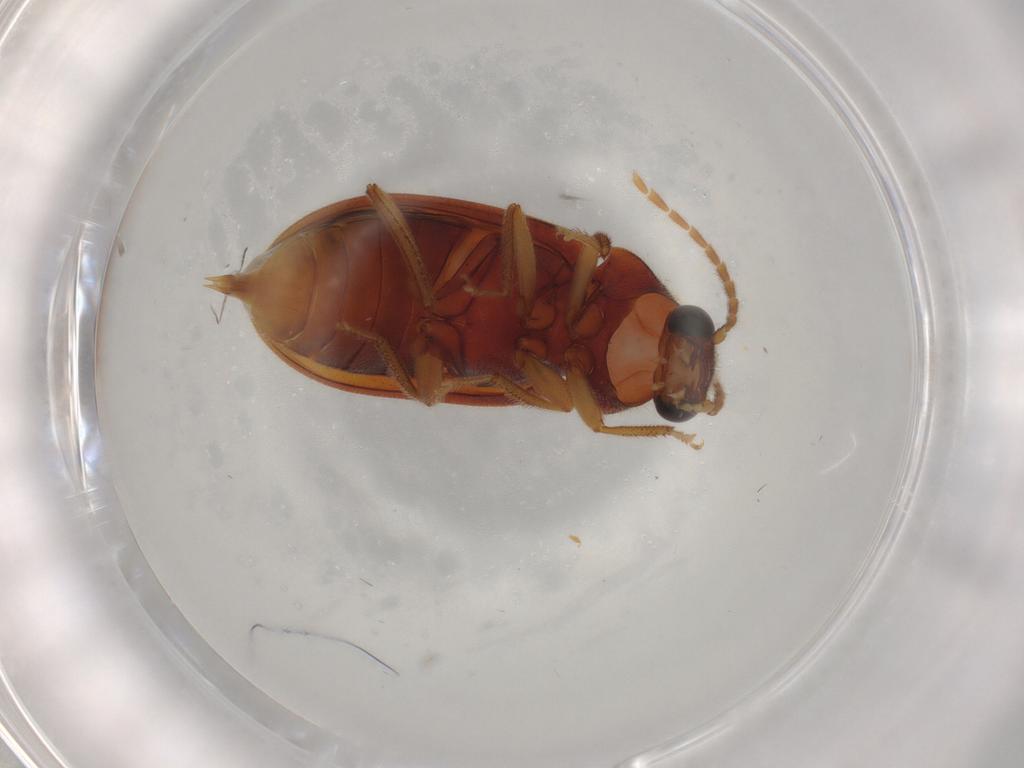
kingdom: Animalia
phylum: Arthropoda
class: Insecta
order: Coleoptera
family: Ptilodactylidae
